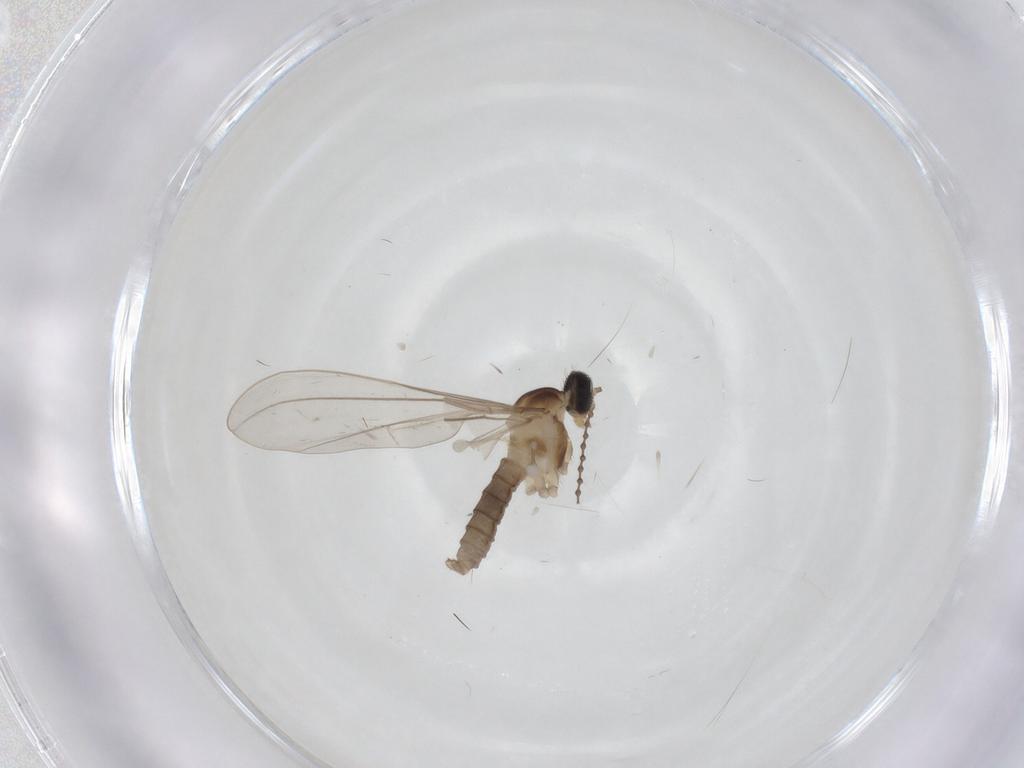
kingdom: Animalia
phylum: Arthropoda
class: Insecta
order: Diptera
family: Cecidomyiidae
